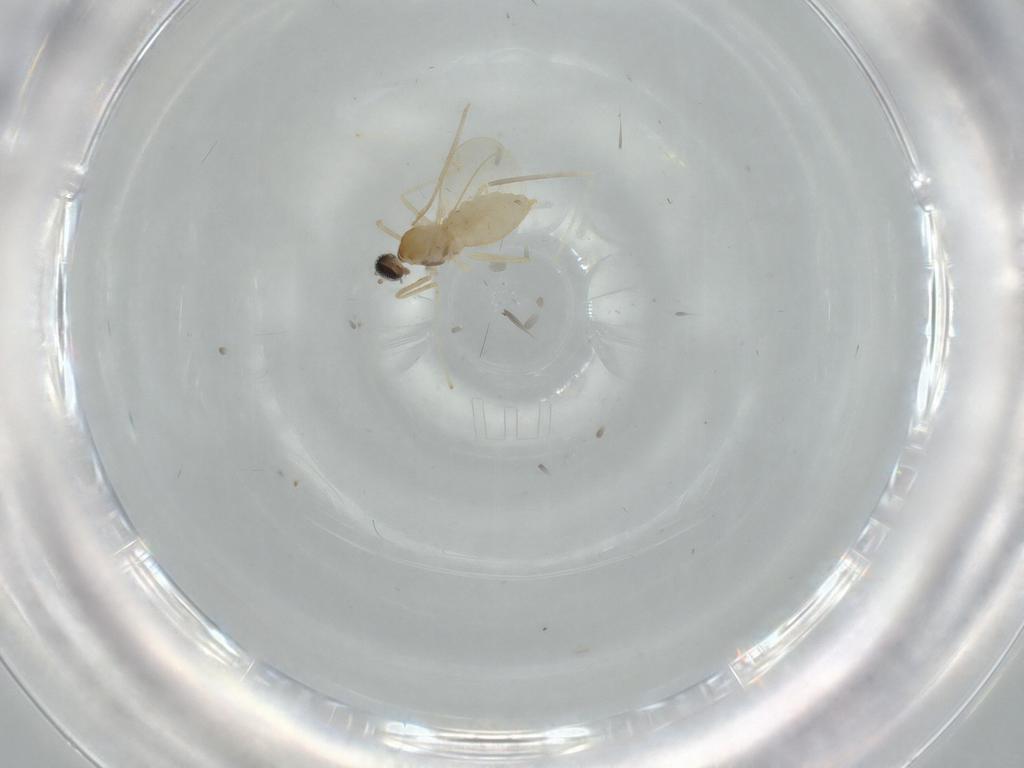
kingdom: Animalia
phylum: Arthropoda
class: Insecta
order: Diptera
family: Cecidomyiidae
